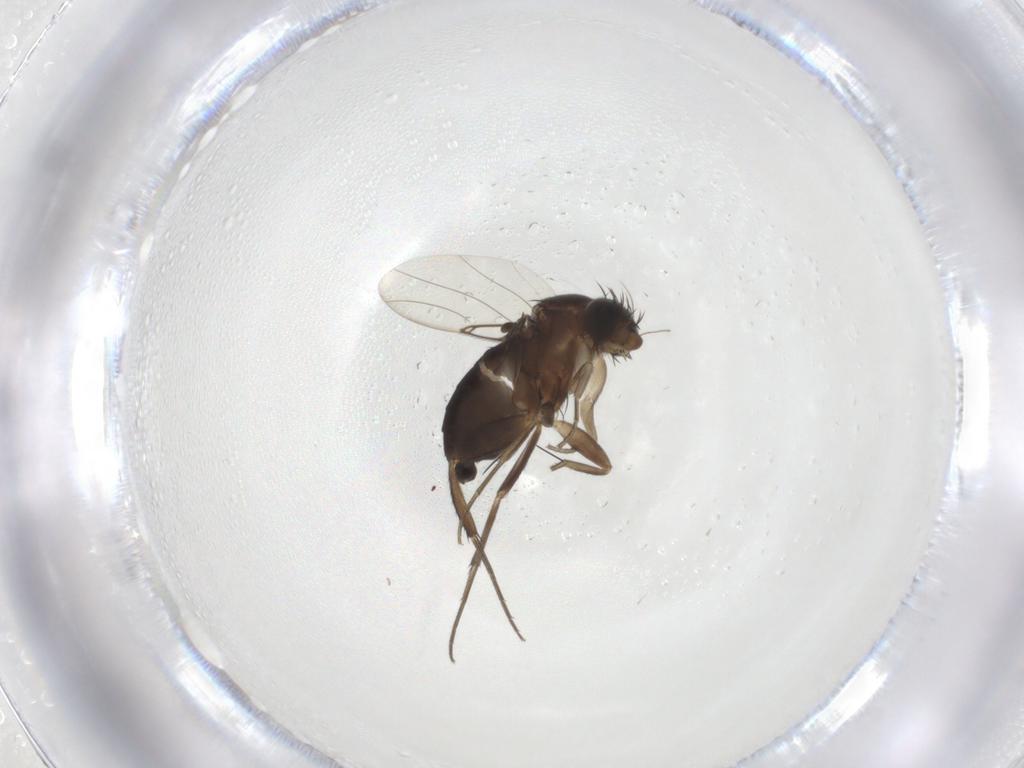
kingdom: Animalia
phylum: Arthropoda
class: Insecta
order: Diptera
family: Phoridae
